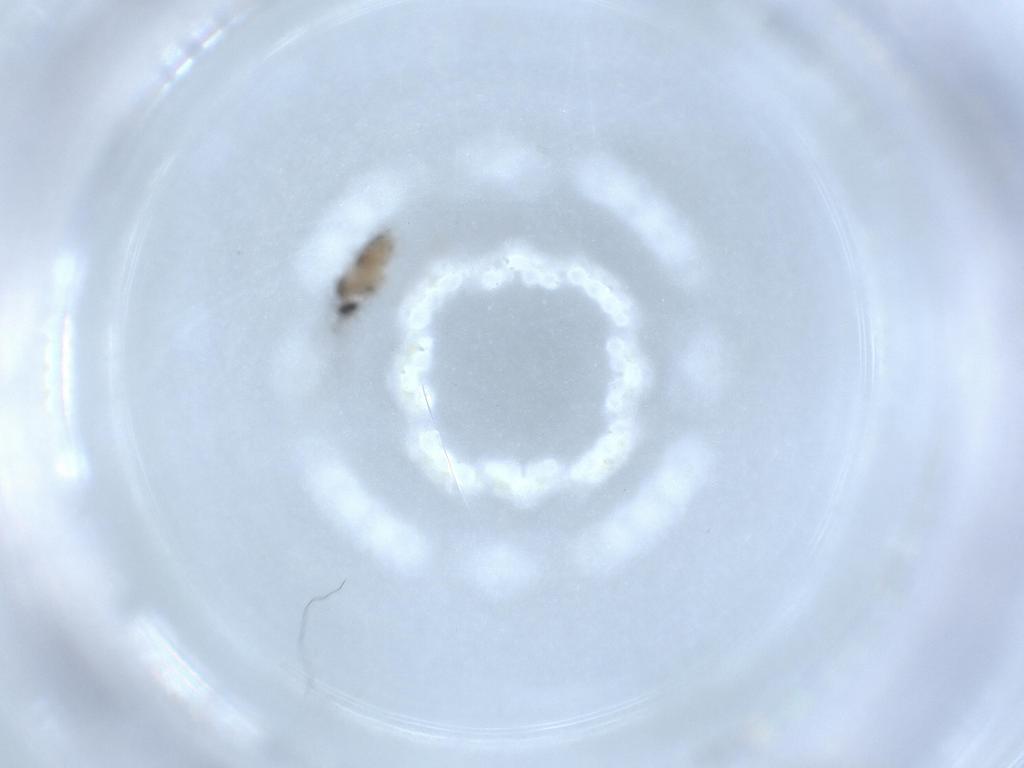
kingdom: Animalia
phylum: Arthropoda
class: Insecta
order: Diptera
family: Cecidomyiidae
